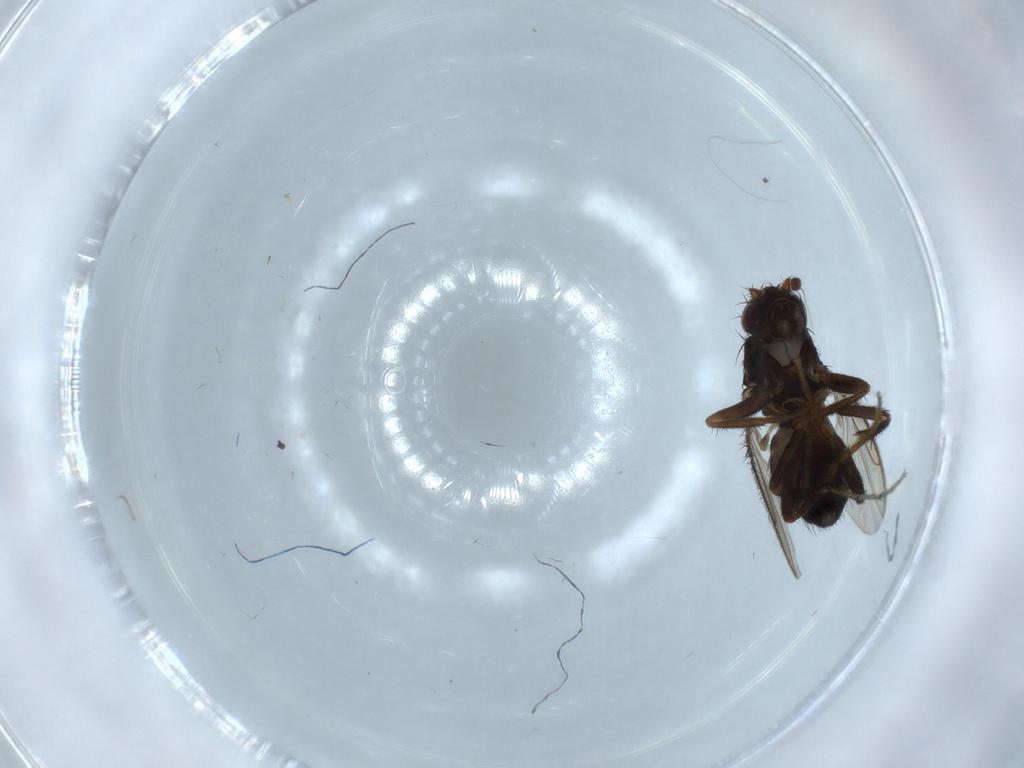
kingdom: Animalia
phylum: Arthropoda
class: Insecta
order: Diptera
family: Sphaeroceridae
